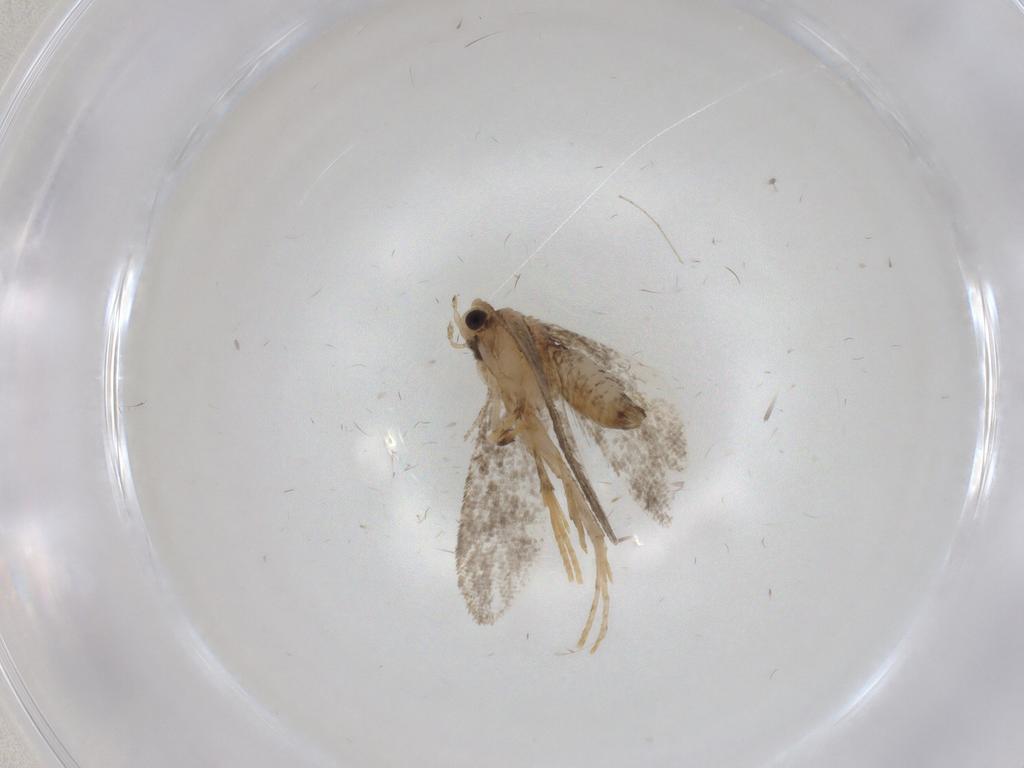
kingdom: Animalia
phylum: Arthropoda
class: Insecta
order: Lepidoptera
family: Psychidae
